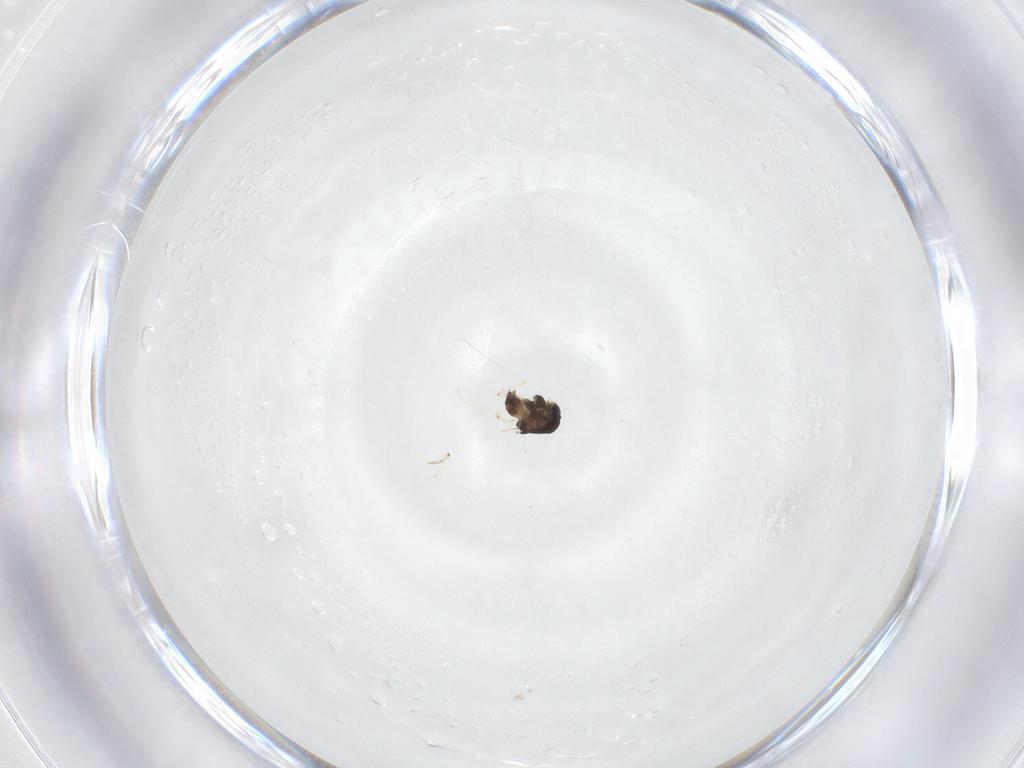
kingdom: Animalia
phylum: Arthropoda
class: Insecta
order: Diptera
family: Chironomidae
